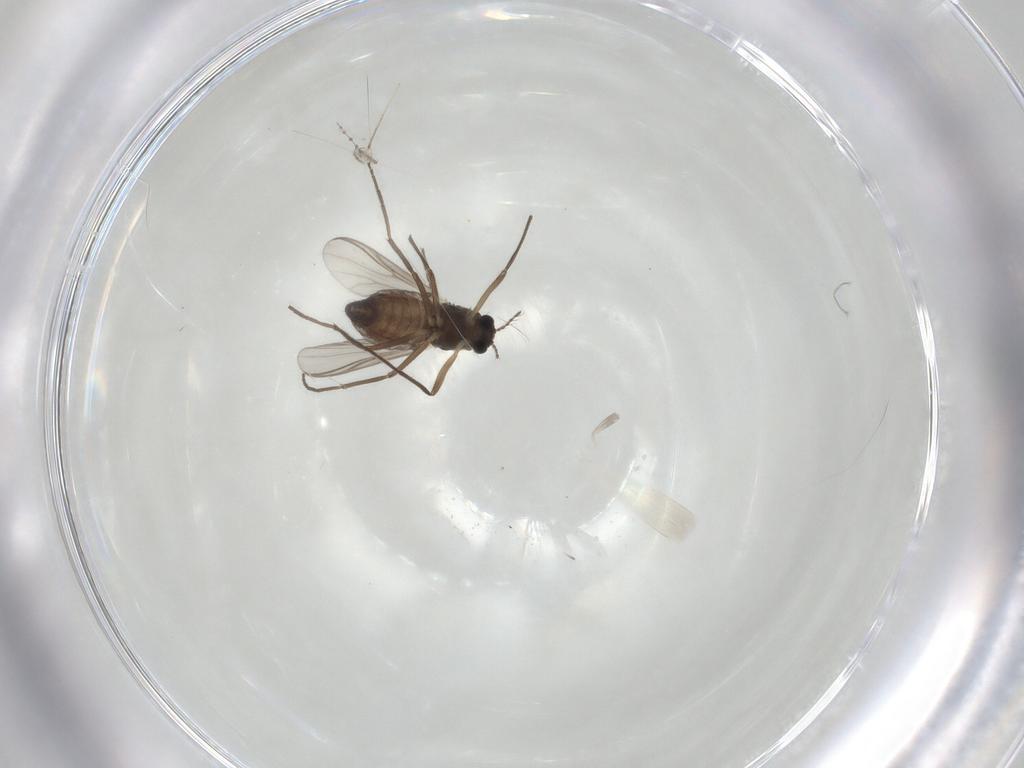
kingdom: Animalia
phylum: Arthropoda
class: Insecta
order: Diptera
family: Chironomidae
